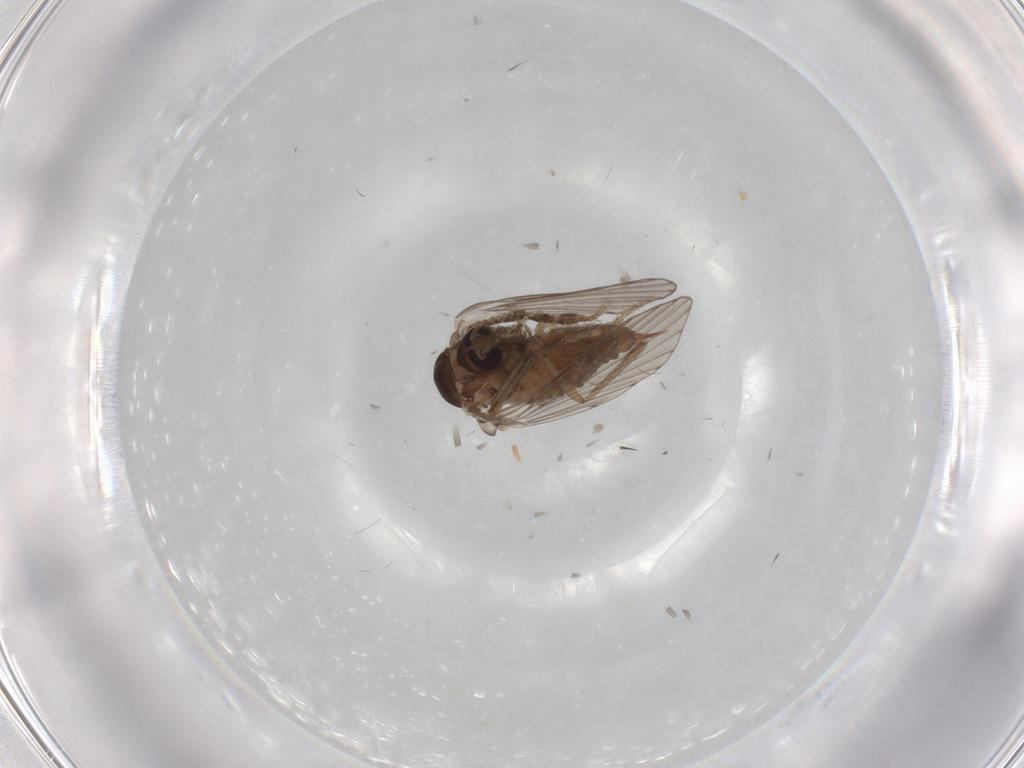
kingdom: Animalia
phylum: Arthropoda
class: Insecta
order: Diptera
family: Psychodidae
